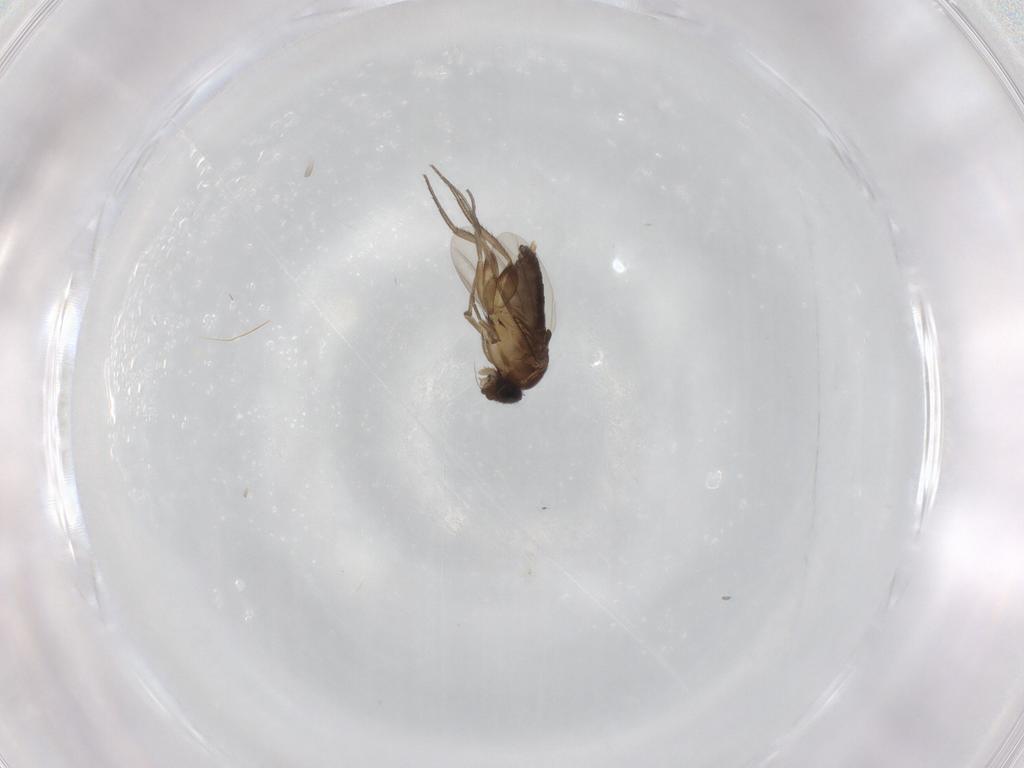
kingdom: Animalia
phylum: Arthropoda
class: Insecta
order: Diptera
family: Phoridae
